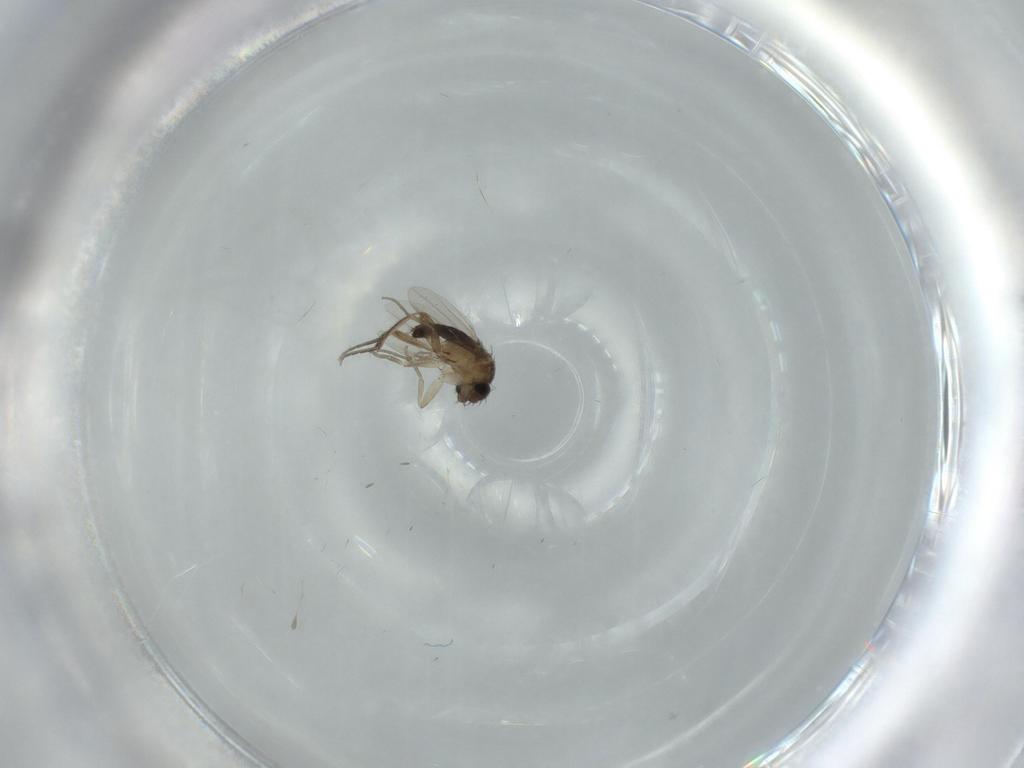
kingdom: Animalia
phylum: Arthropoda
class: Insecta
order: Diptera
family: Phoridae
